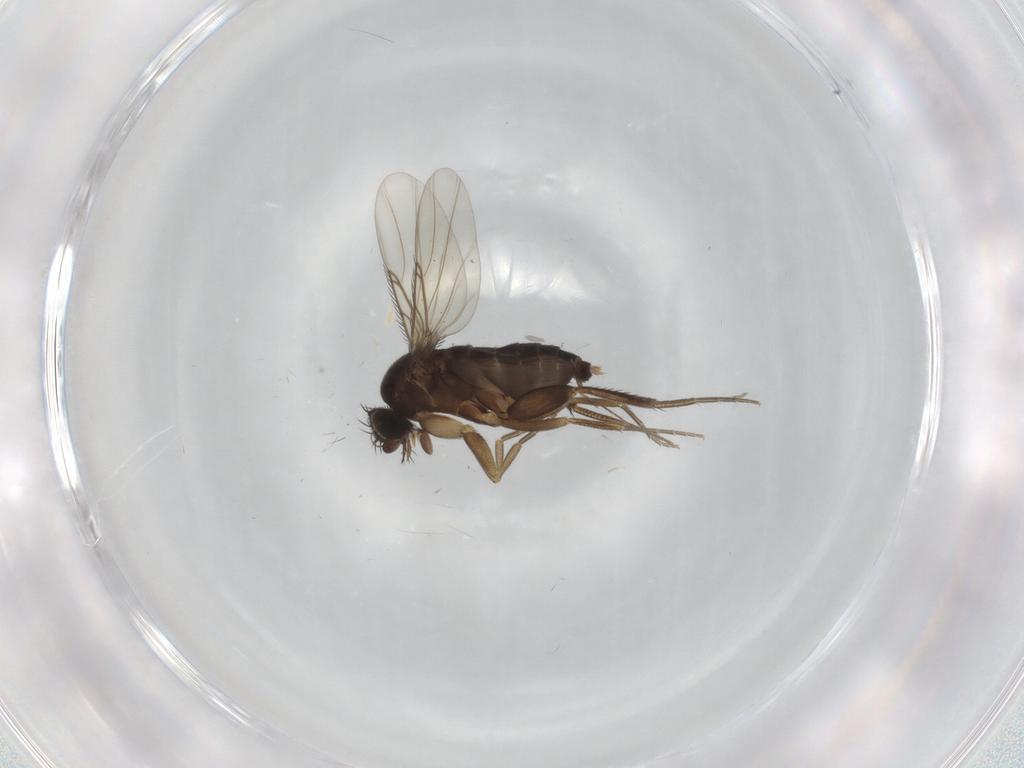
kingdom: Animalia
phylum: Arthropoda
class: Insecta
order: Diptera
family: Phoridae
